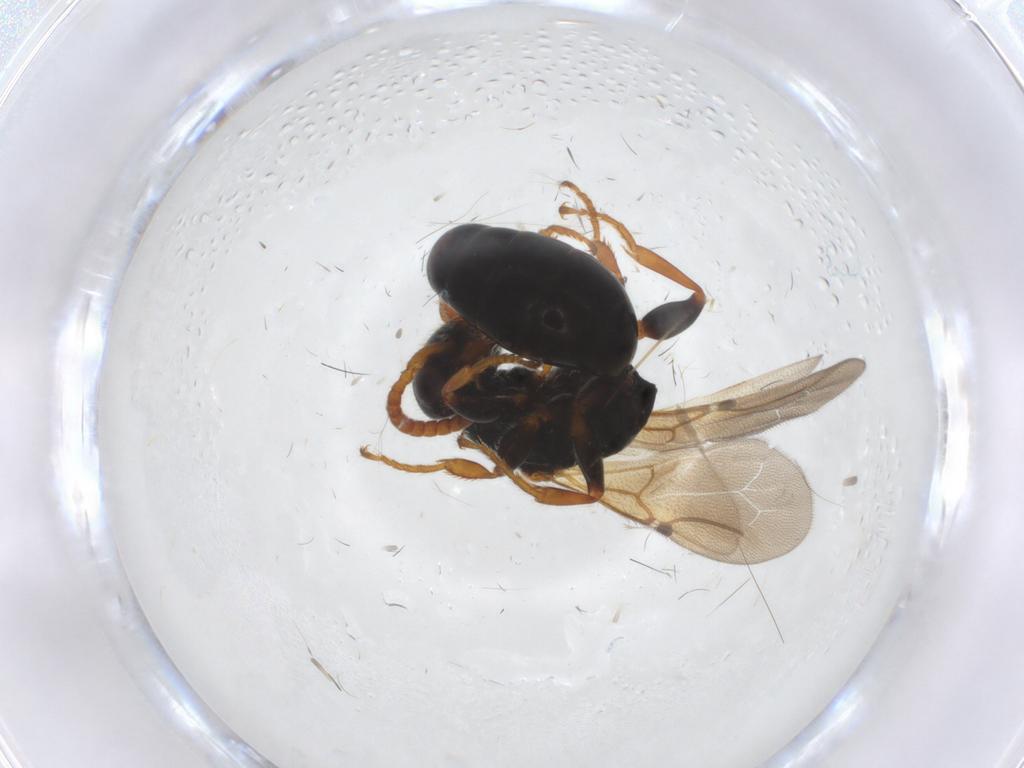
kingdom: Animalia
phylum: Arthropoda
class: Insecta
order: Hymenoptera
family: Bethylidae
